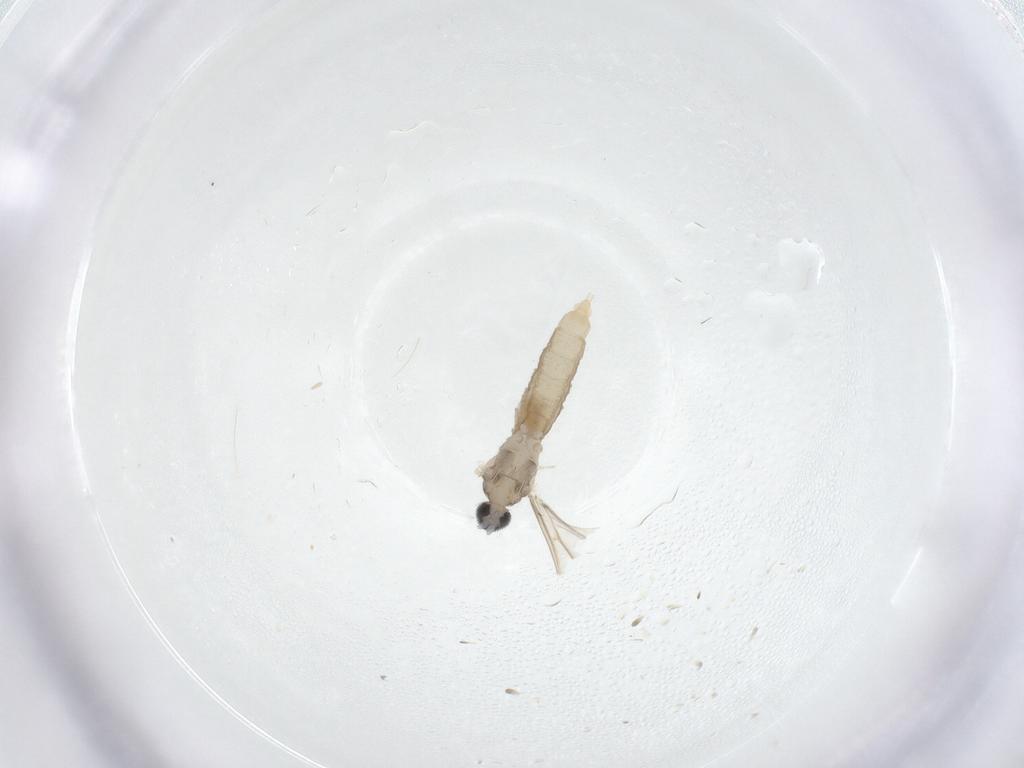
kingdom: Animalia
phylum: Arthropoda
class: Insecta
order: Diptera
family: Cecidomyiidae
